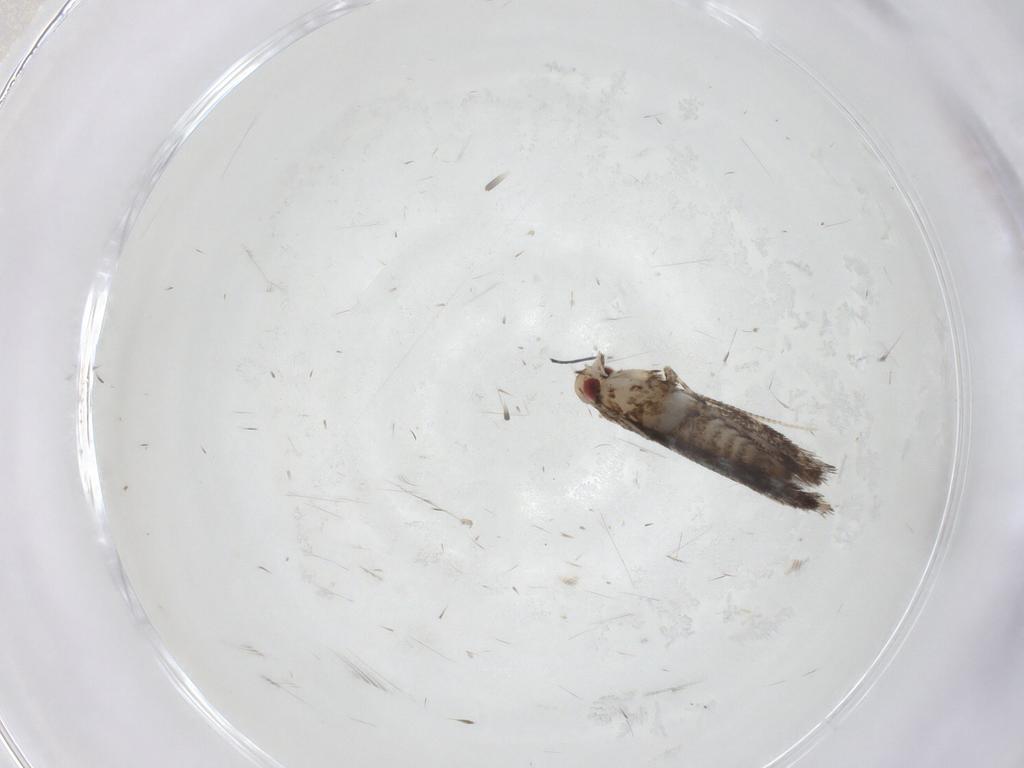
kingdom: Animalia
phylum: Arthropoda
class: Insecta
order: Lepidoptera
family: Gracillariidae
